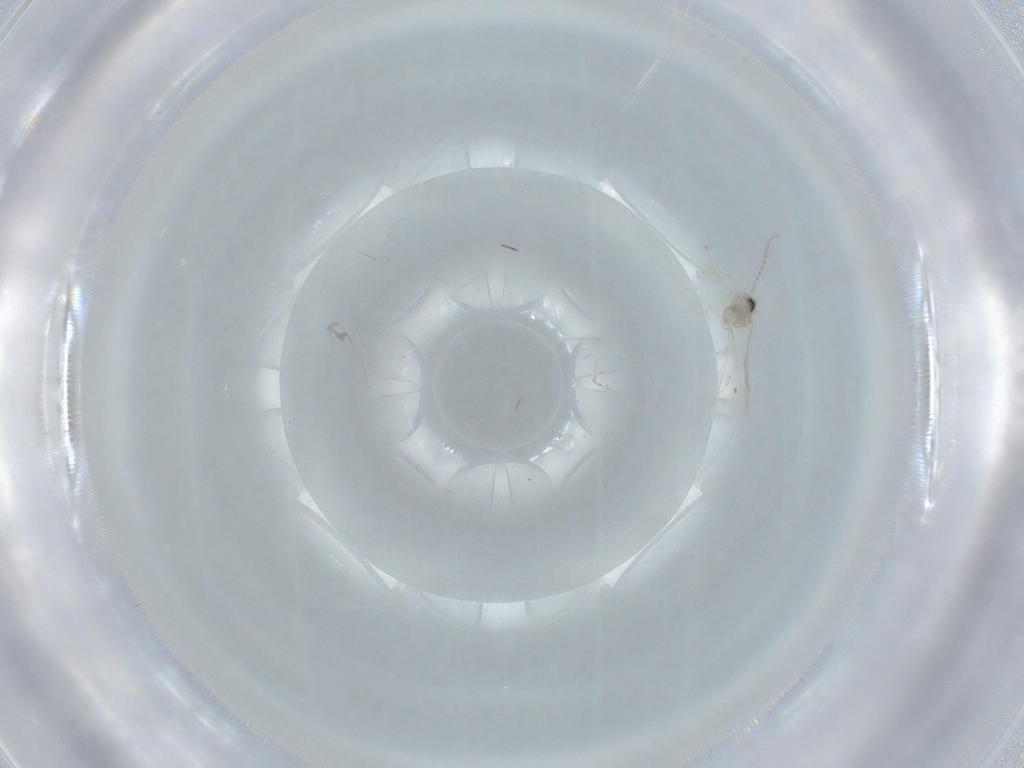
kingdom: Animalia
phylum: Arthropoda
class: Insecta
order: Diptera
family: Cecidomyiidae
